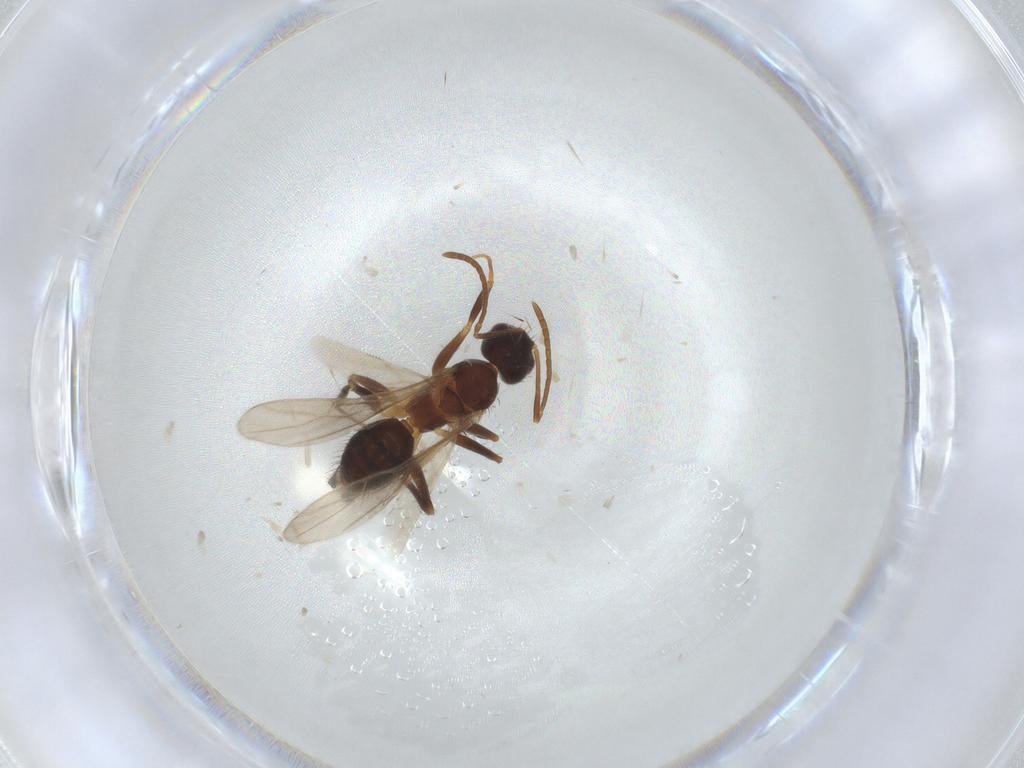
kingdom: Animalia
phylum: Arthropoda
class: Insecta
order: Hymenoptera
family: Formicidae
